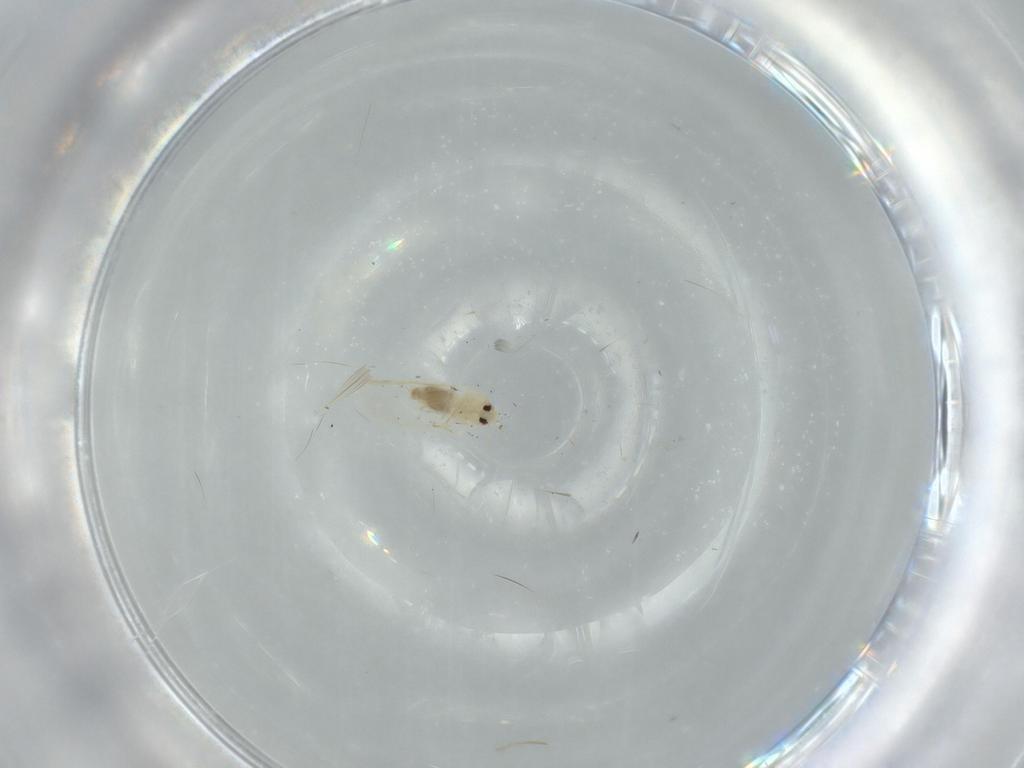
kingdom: Animalia
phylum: Arthropoda
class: Insecta
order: Hemiptera
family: Aleyrodidae
